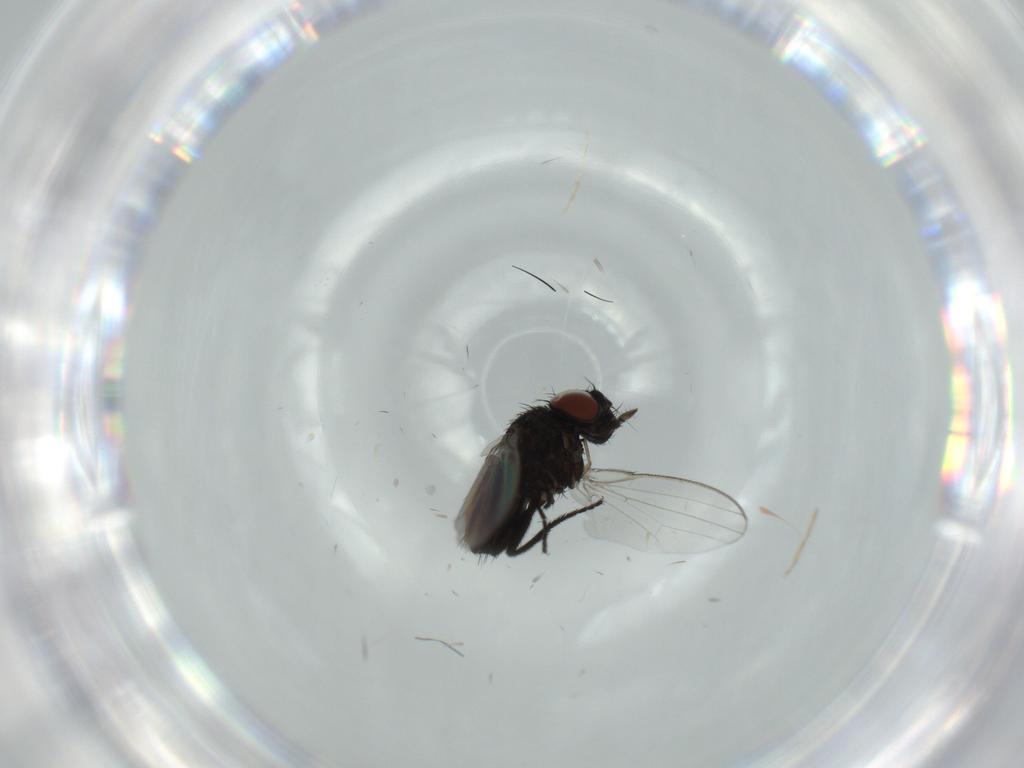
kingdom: Animalia
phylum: Arthropoda
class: Insecta
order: Diptera
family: Milichiidae
